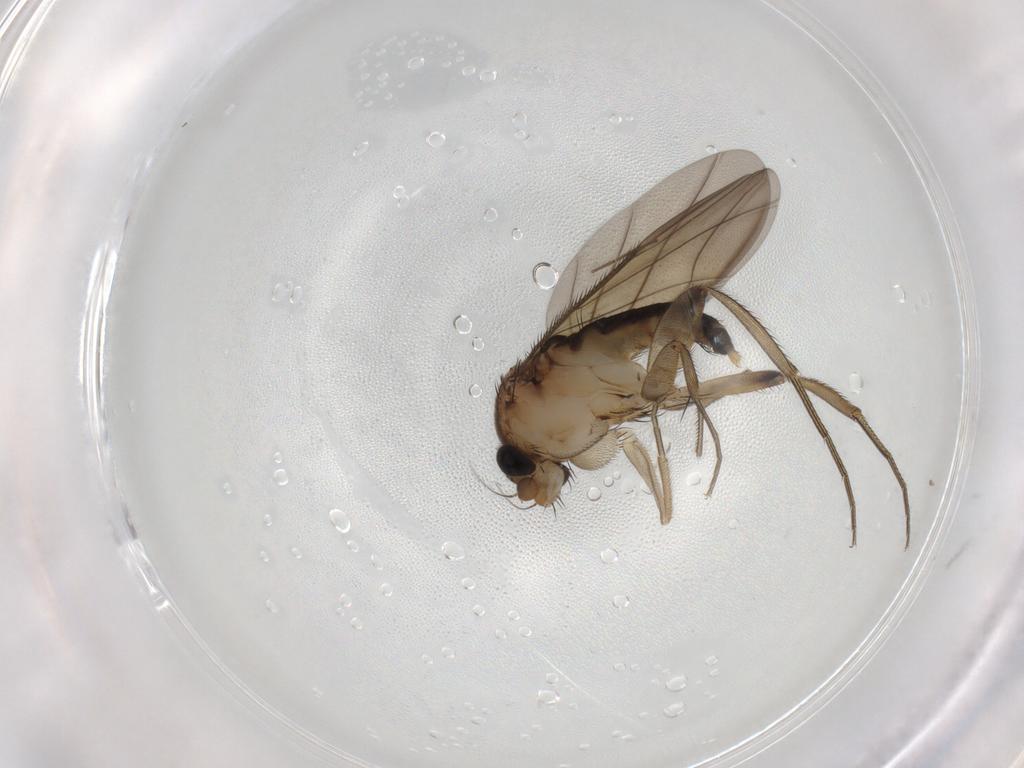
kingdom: Animalia
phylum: Arthropoda
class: Insecta
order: Diptera
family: Phoridae
